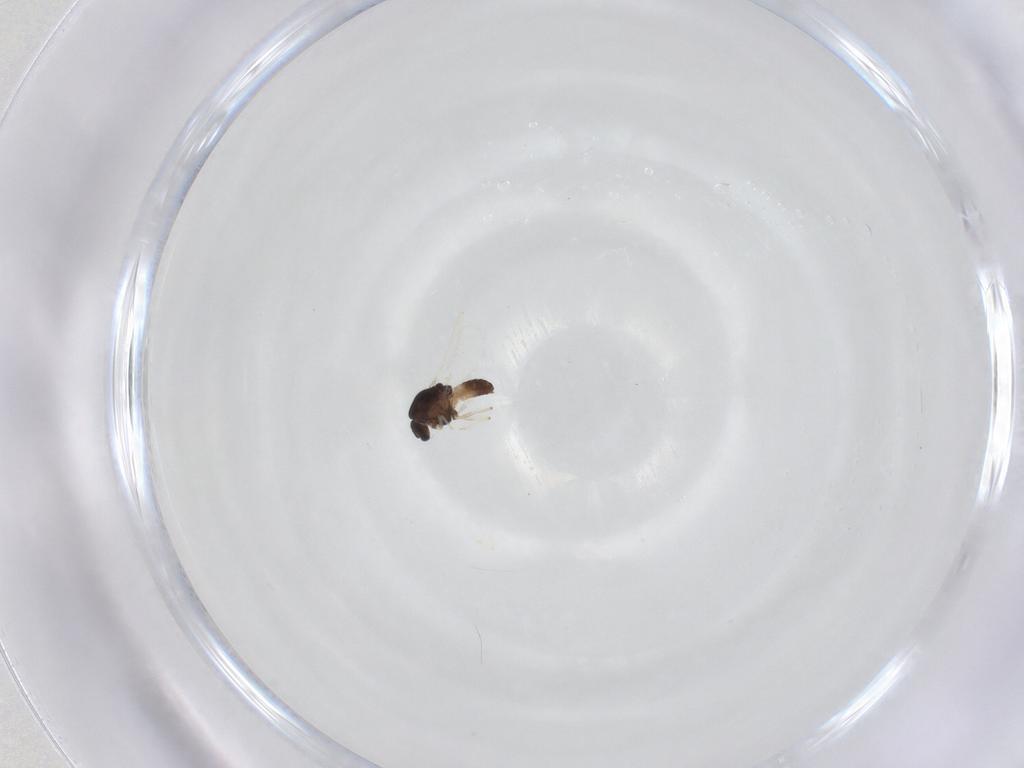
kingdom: Animalia
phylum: Arthropoda
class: Insecta
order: Diptera
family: Chironomidae
